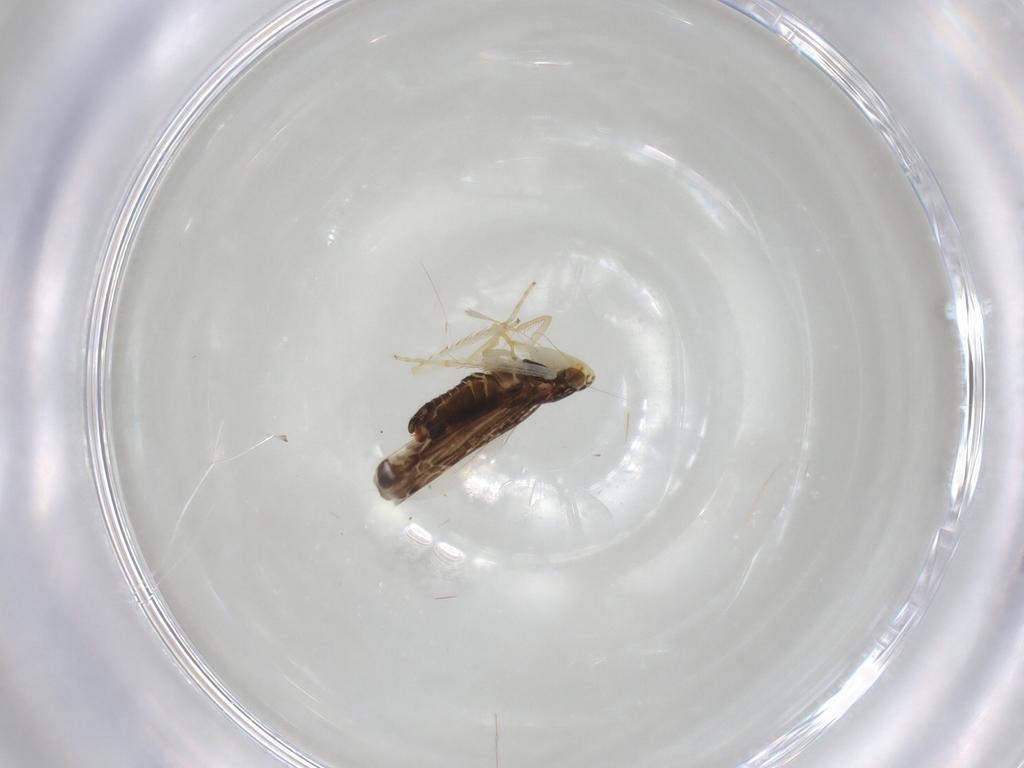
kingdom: Animalia
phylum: Arthropoda
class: Insecta
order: Hemiptera
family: Cicadellidae
